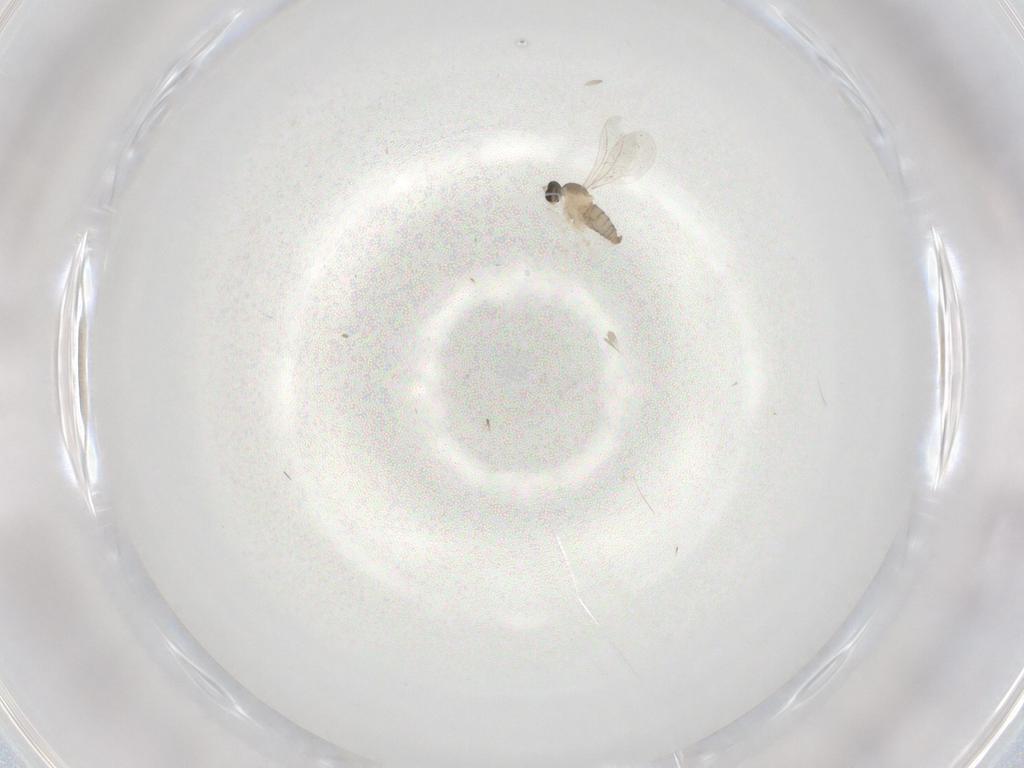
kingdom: Animalia
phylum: Arthropoda
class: Insecta
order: Diptera
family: Cecidomyiidae
